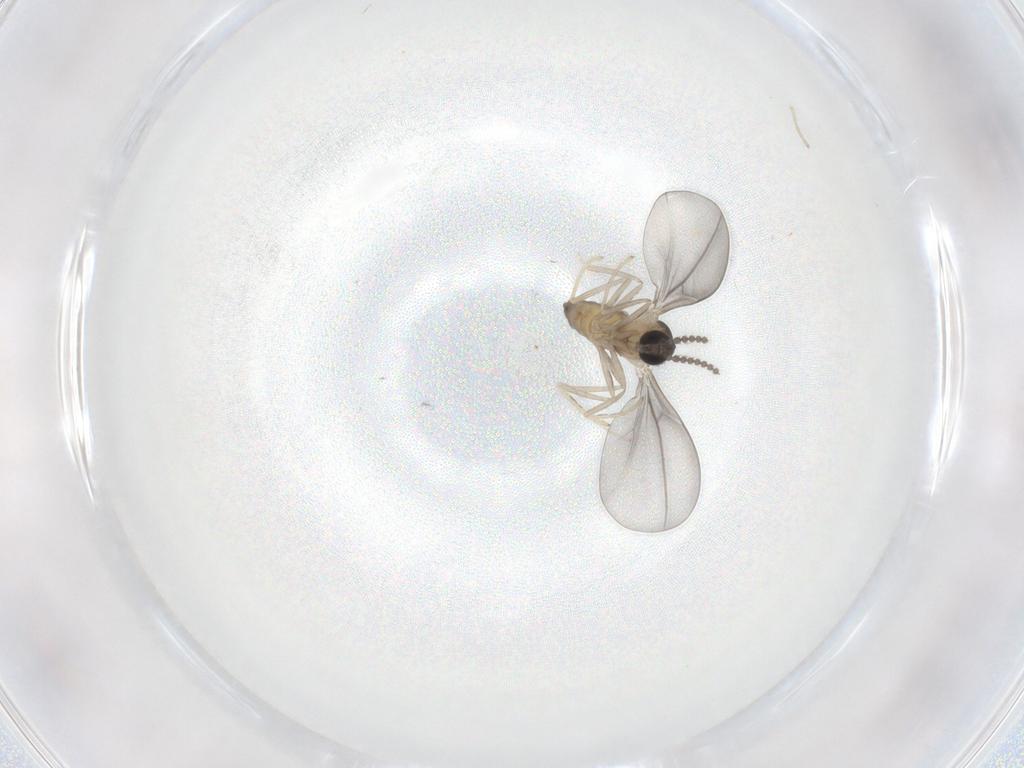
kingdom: Animalia
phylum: Arthropoda
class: Insecta
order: Diptera
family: Cecidomyiidae
